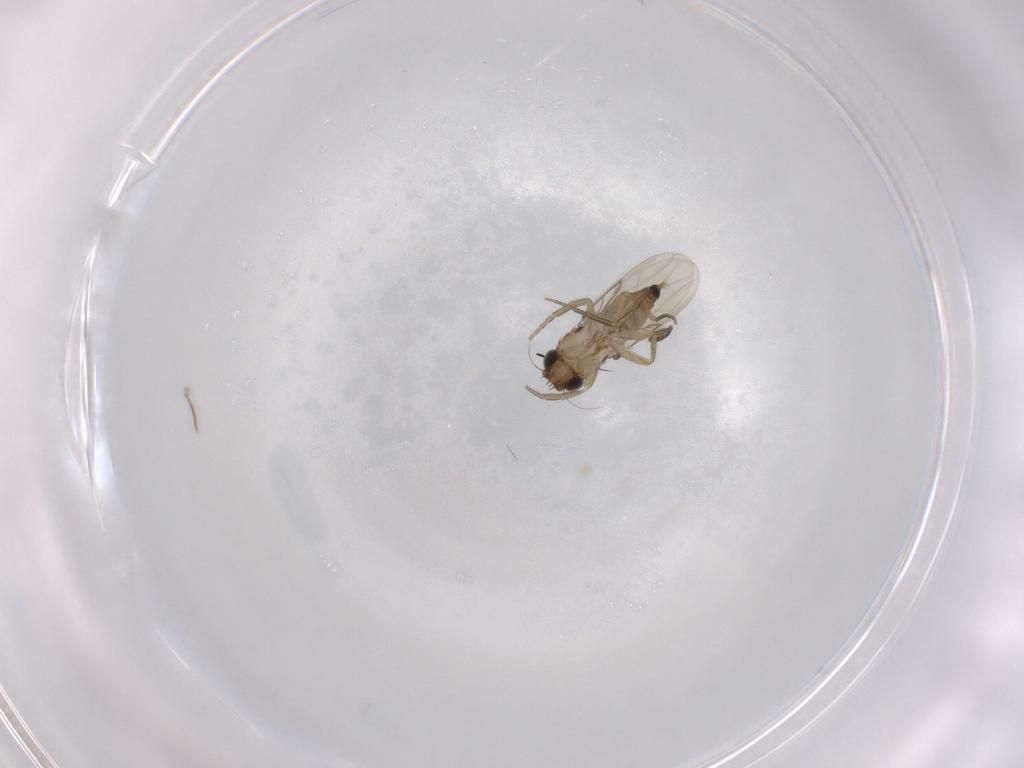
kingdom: Animalia
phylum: Arthropoda
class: Insecta
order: Diptera
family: Phoridae
